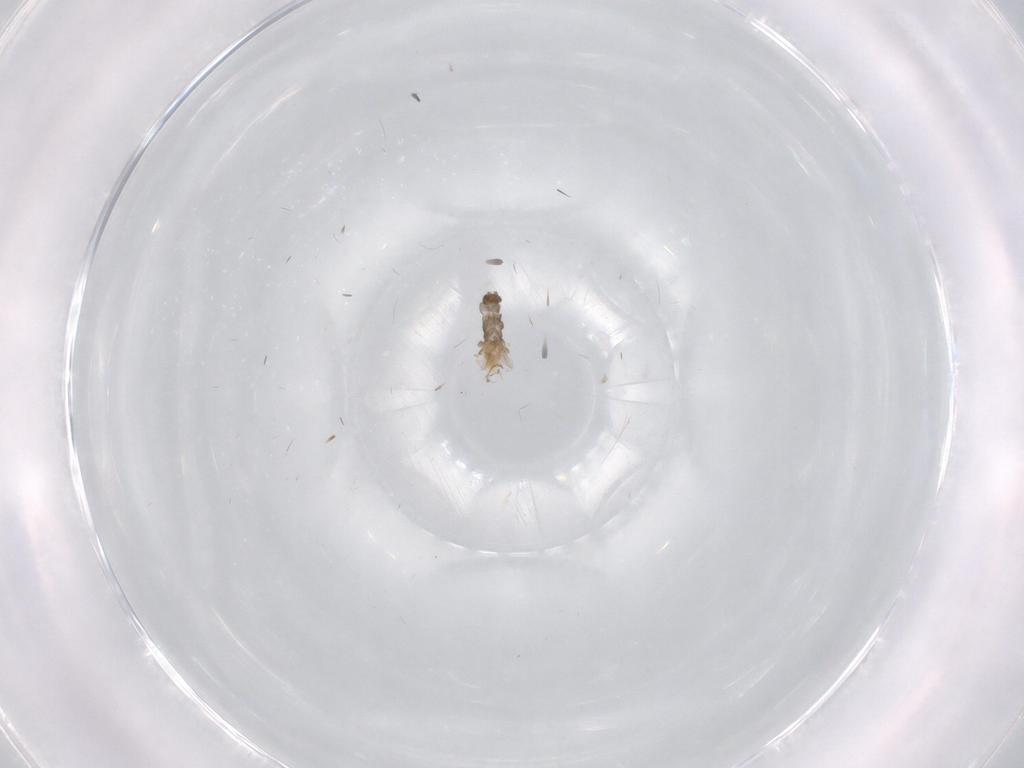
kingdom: Animalia
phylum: Arthropoda
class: Insecta
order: Diptera
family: Cecidomyiidae
